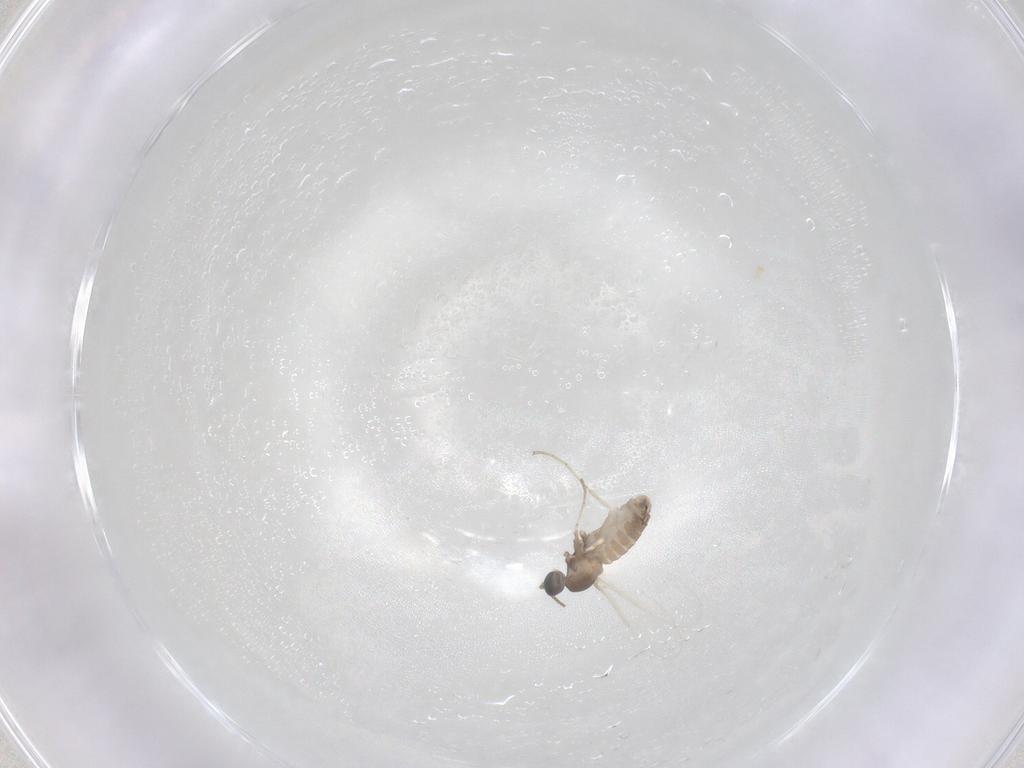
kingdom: Animalia
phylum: Arthropoda
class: Insecta
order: Diptera
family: Cecidomyiidae
